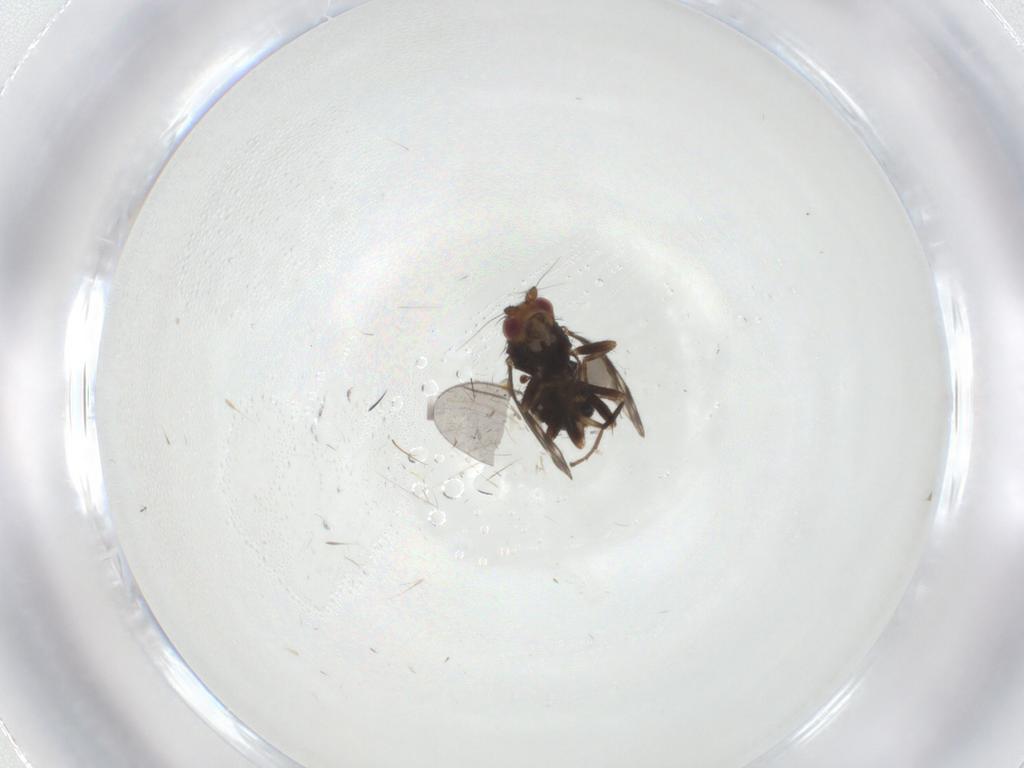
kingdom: Animalia
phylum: Arthropoda
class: Insecta
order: Diptera
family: Sphaeroceridae
